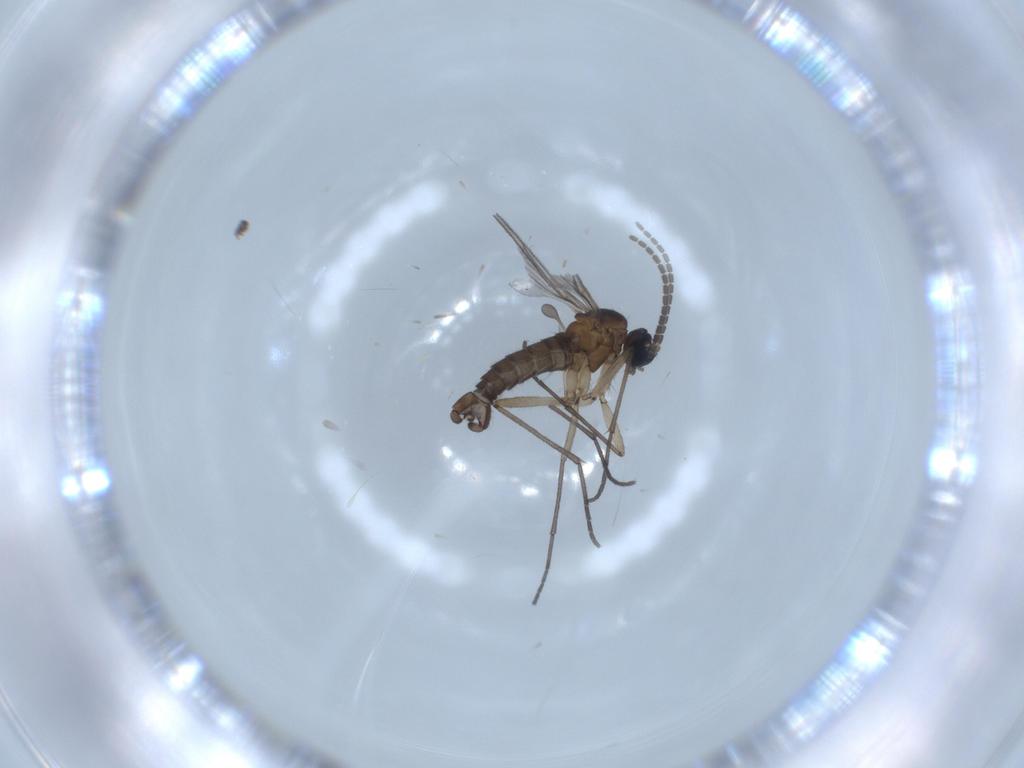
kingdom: Animalia
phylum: Arthropoda
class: Insecta
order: Diptera
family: Sciaridae
